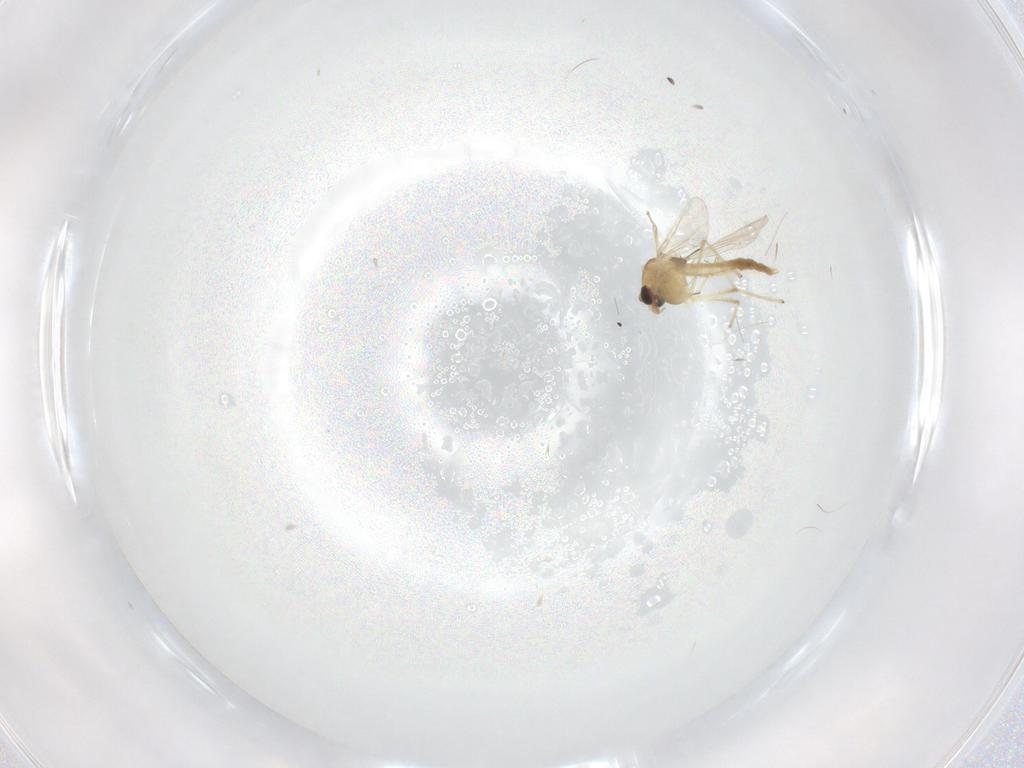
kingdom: Animalia
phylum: Arthropoda
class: Insecta
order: Diptera
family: Chironomidae
